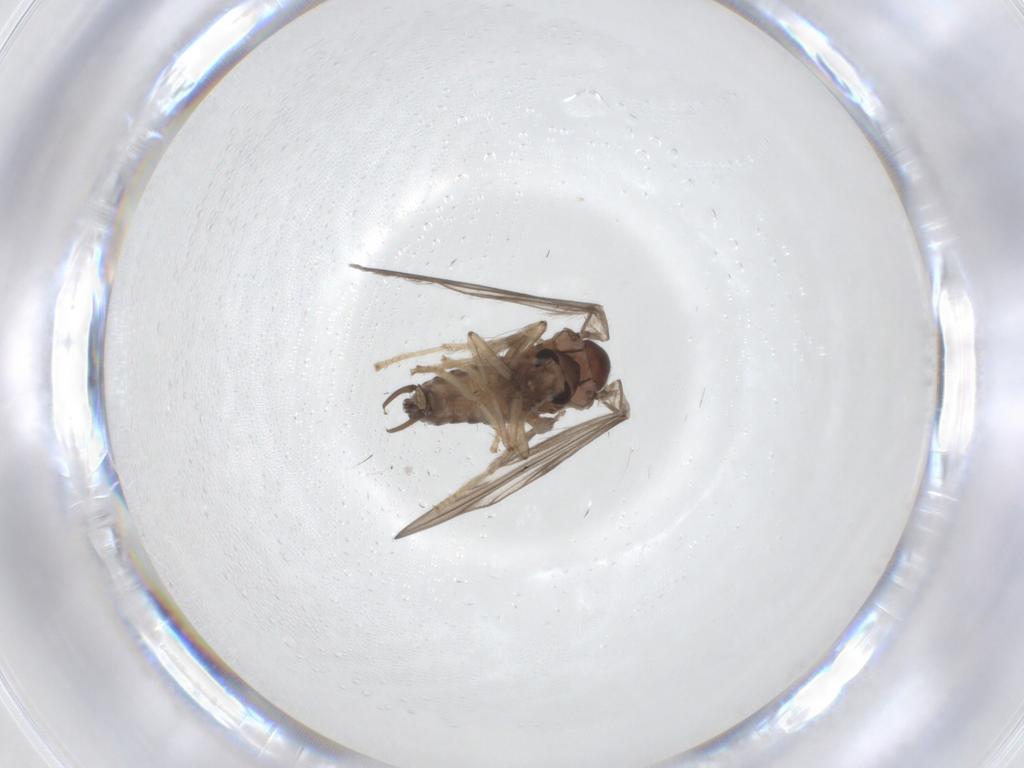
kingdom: Animalia
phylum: Arthropoda
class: Insecta
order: Diptera
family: Psychodidae
